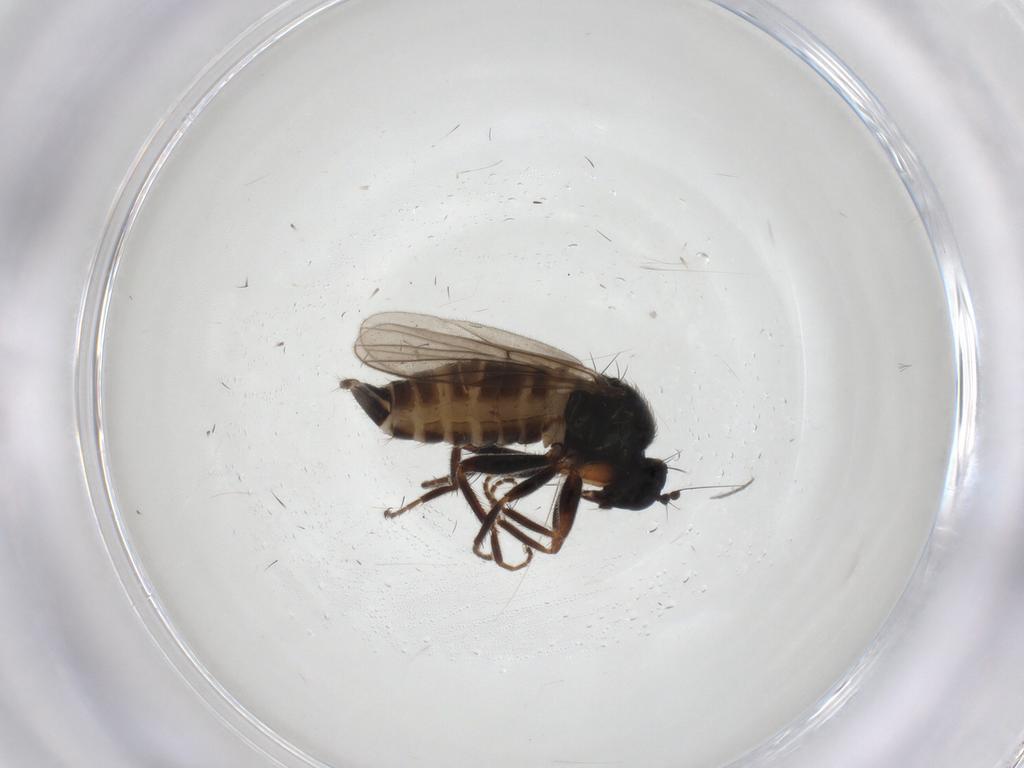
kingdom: Animalia
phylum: Arthropoda
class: Insecta
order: Diptera
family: Phoridae
